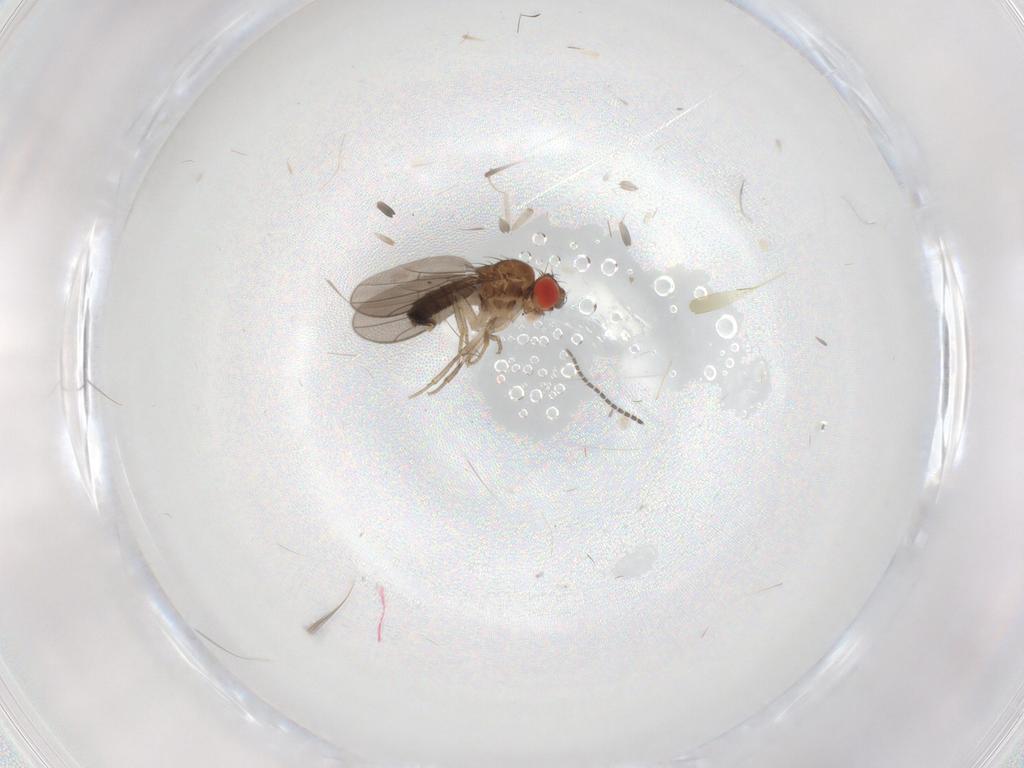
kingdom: Animalia
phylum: Arthropoda
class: Insecta
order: Diptera
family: Drosophilidae
